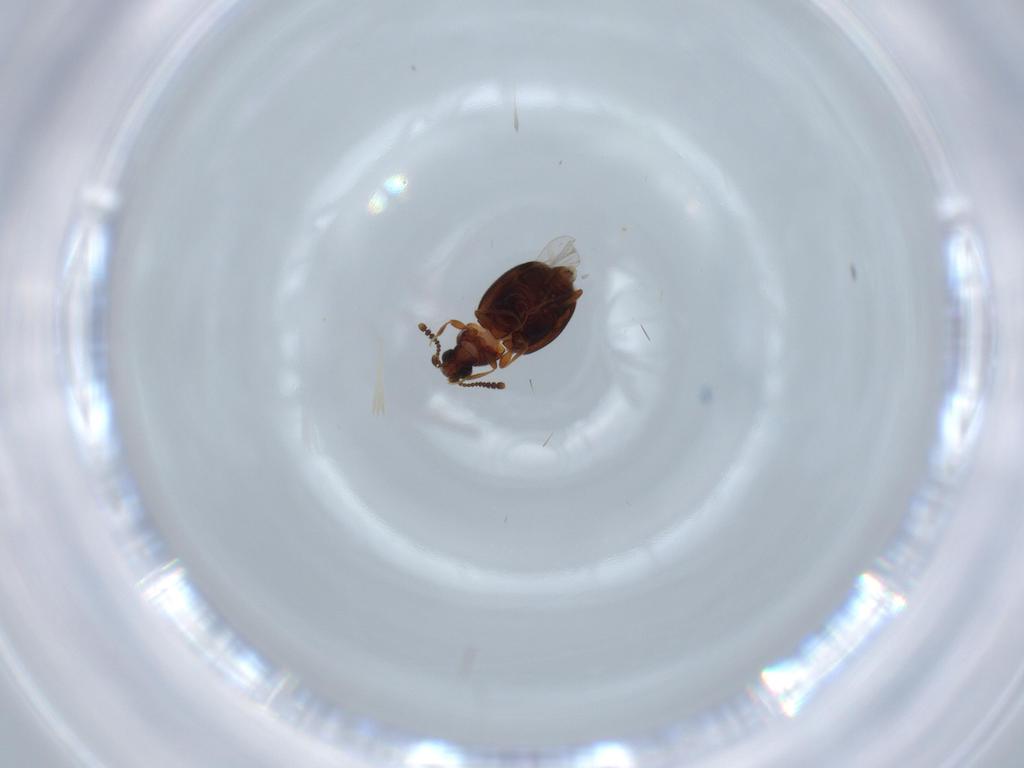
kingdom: Animalia
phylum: Arthropoda
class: Insecta
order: Coleoptera
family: Staphylinidae
